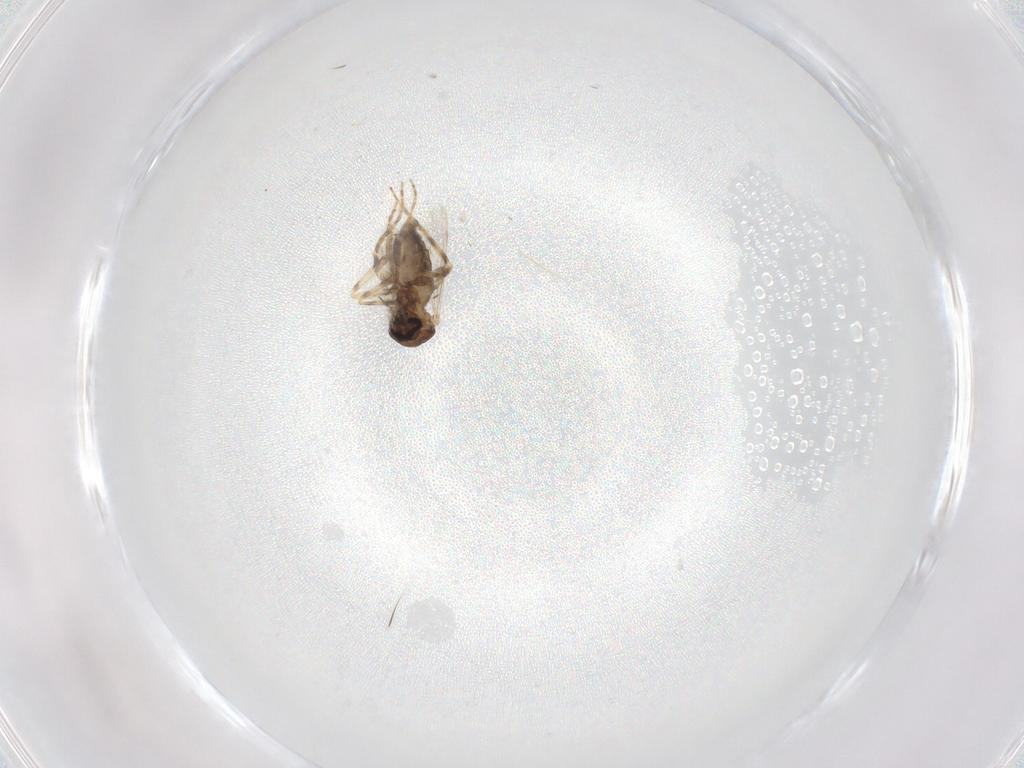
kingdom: Animalia
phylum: Arthropoda
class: Insecta
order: Diptera
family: Ceratopogonidae
